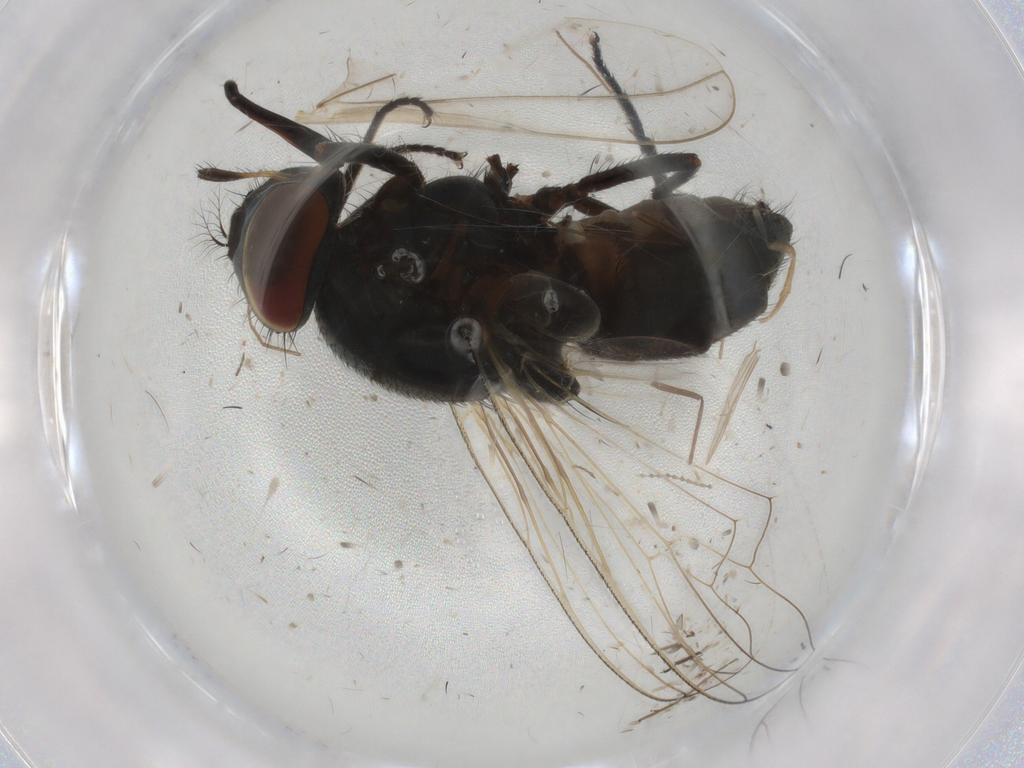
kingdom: Animalia
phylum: Arthropoda
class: Insecta
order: Diptera
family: Muscidae
